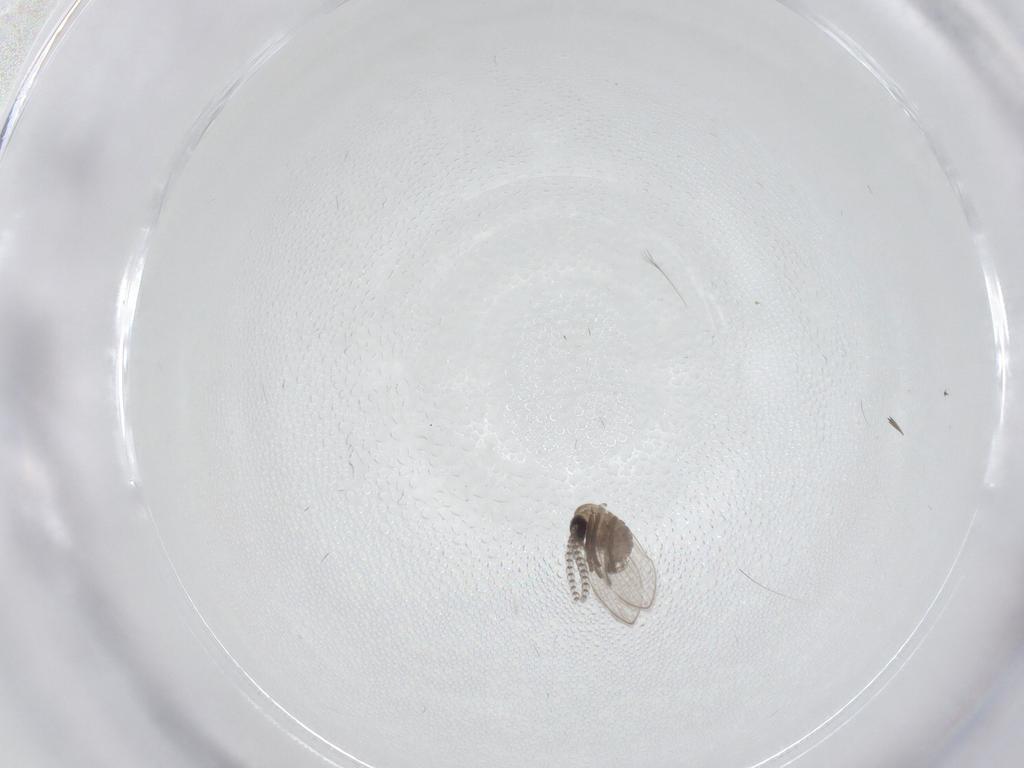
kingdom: Animalia
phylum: Arthropoda
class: Insecta
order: Diptera
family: Psychodidae
